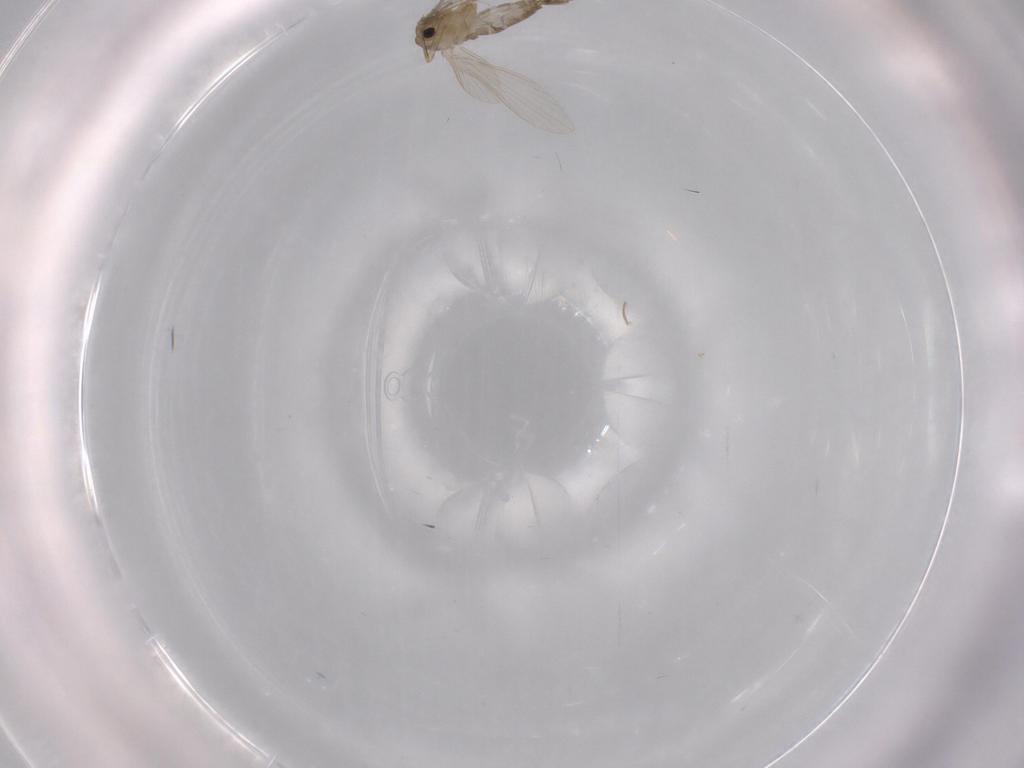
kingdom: Animalia
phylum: Arthropoda
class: Insecta
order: Diptera
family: Psychodidae
